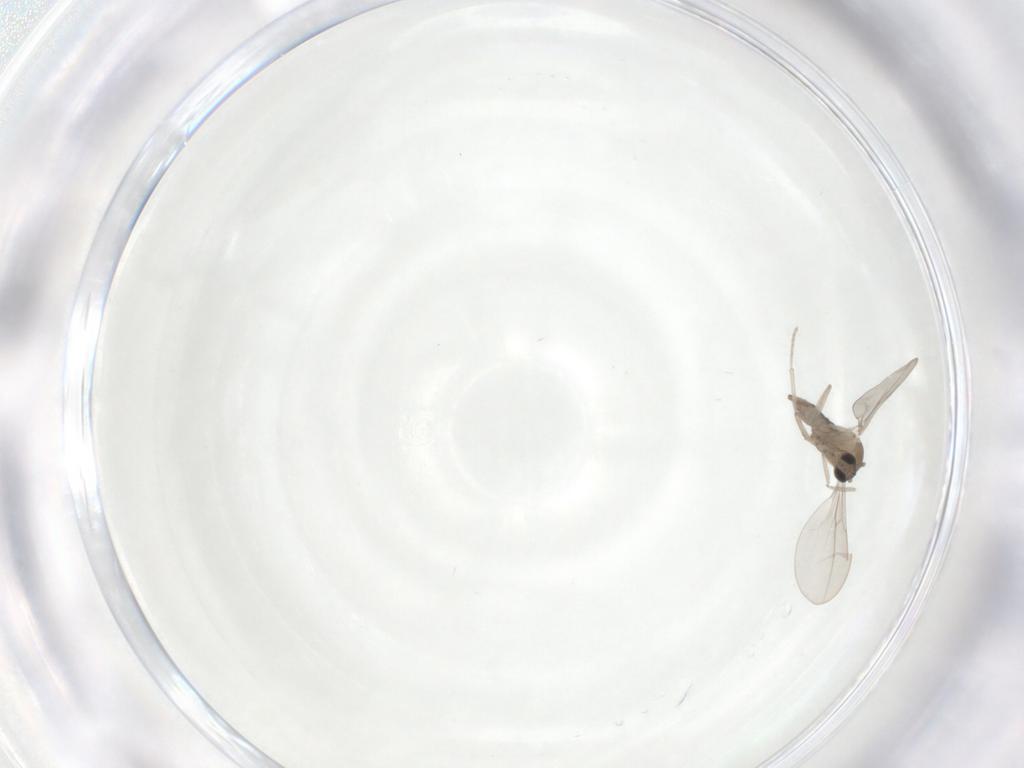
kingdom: Animalia
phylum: Arthropoda
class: Insecta
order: Diptera
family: Cecidomyiidae
